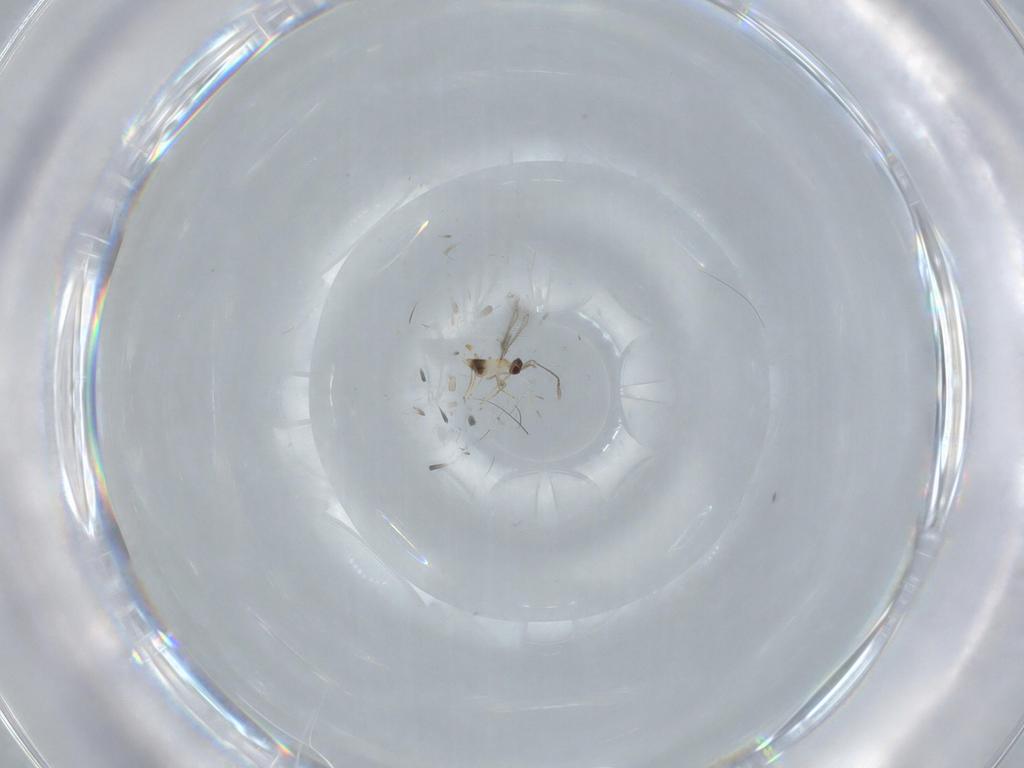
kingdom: Animalia
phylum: Arthropoda
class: Insecta
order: Hymenoptera
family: Mymaridae
